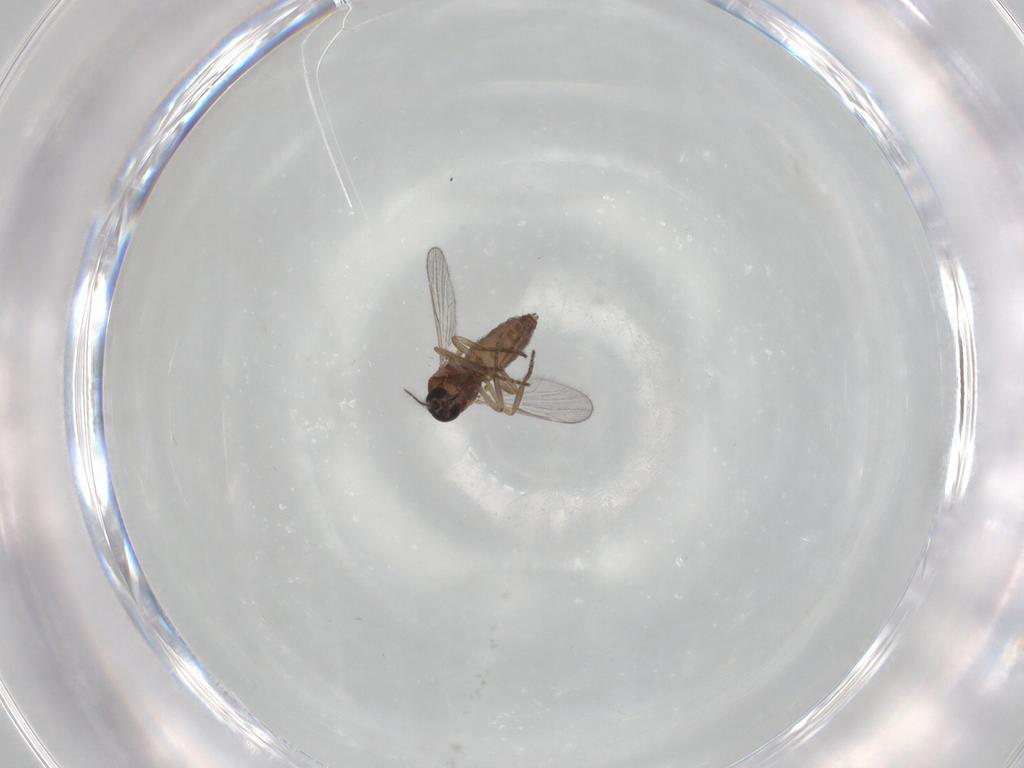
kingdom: Animalia
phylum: Arthropoda
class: Insecta
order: Diptera
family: Ceratopogonidae
